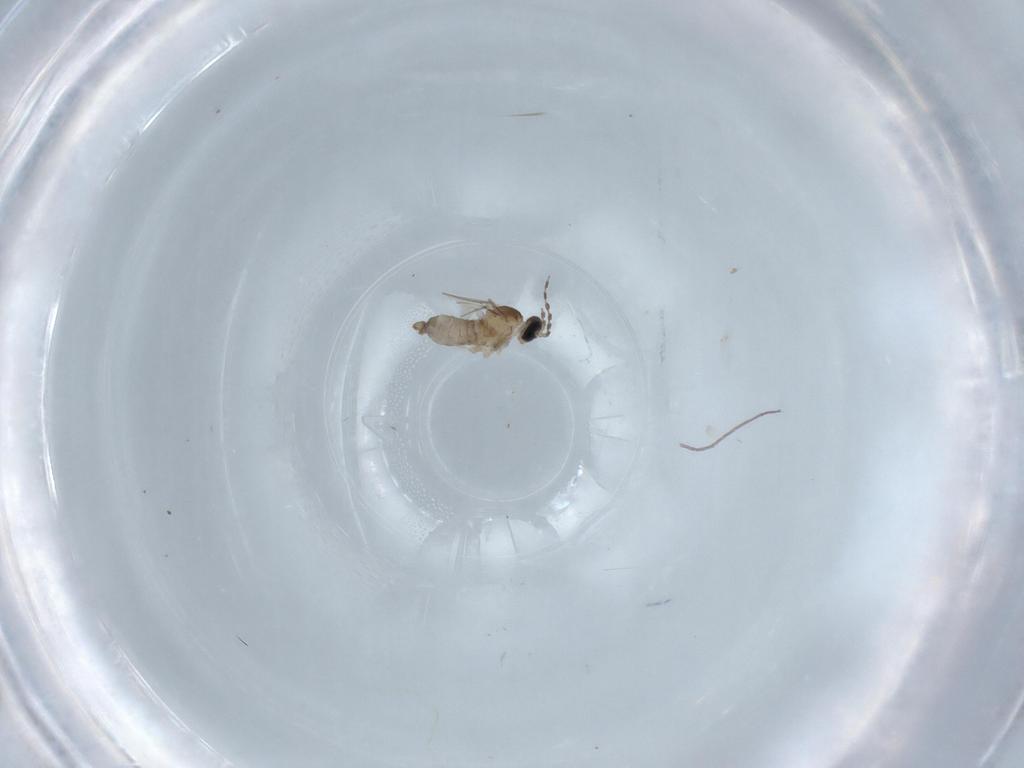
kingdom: Animalia
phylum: Arthropoda
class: Insecta
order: Diptera
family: Cecidomyiidae
